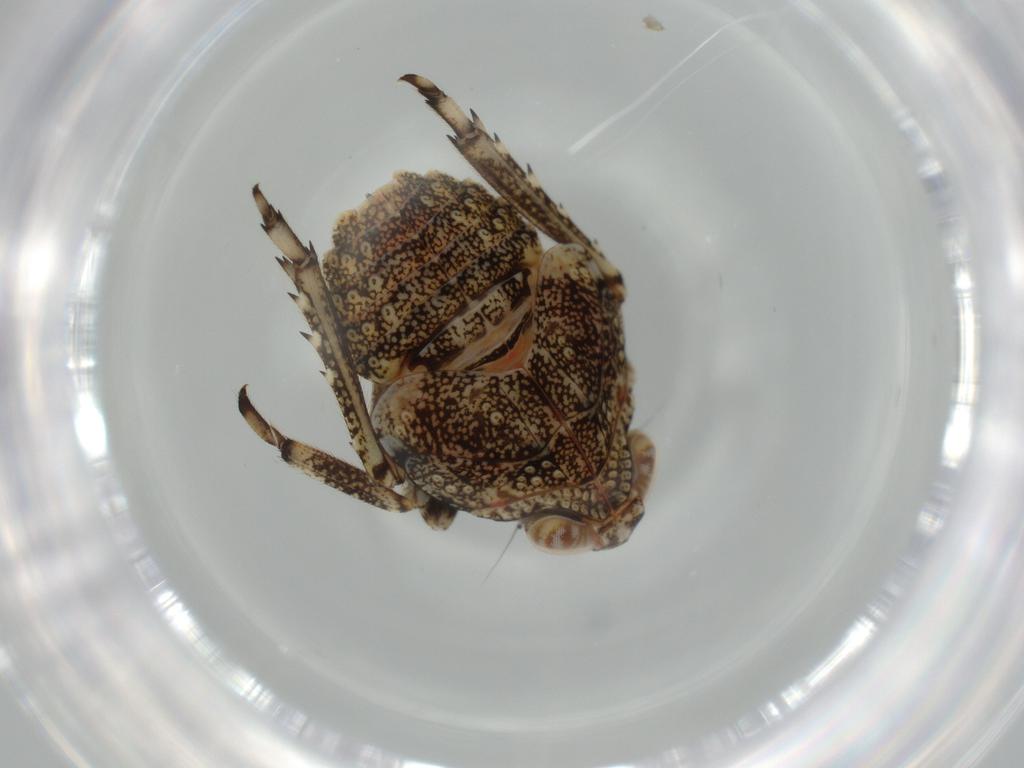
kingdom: Animalia
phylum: Arthropoda
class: Insecta
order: Hemiptera
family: Issidae
